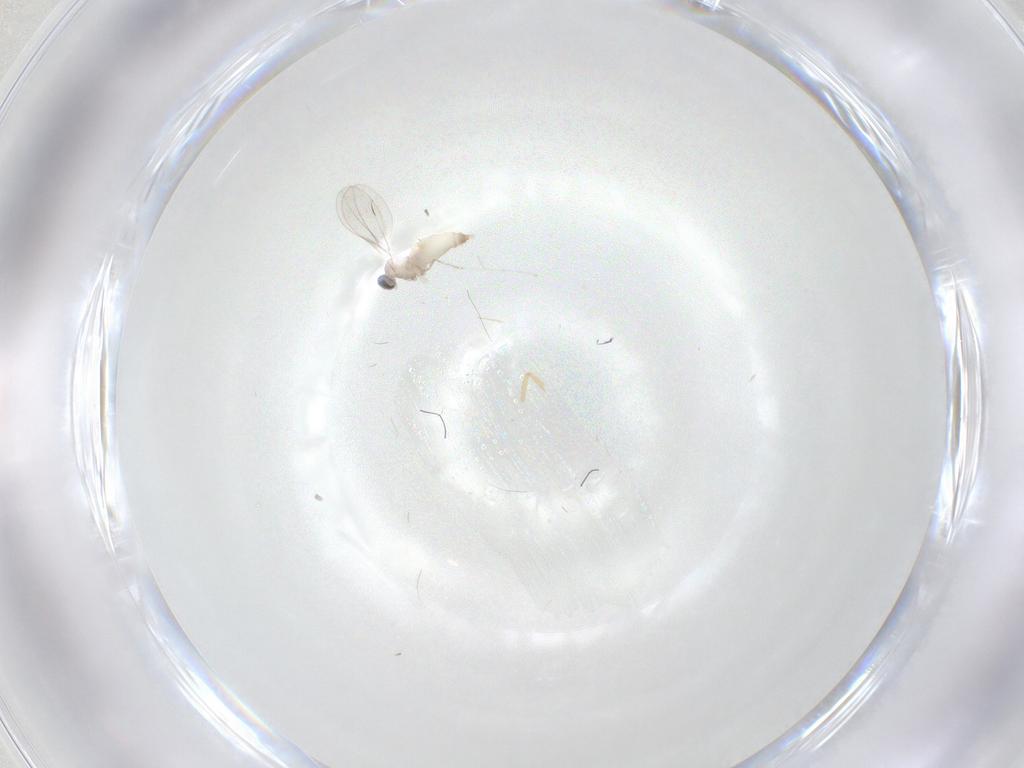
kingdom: Animalia
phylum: Arthropoda
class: Insecta
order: Diptera
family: Cecidomyiidae
